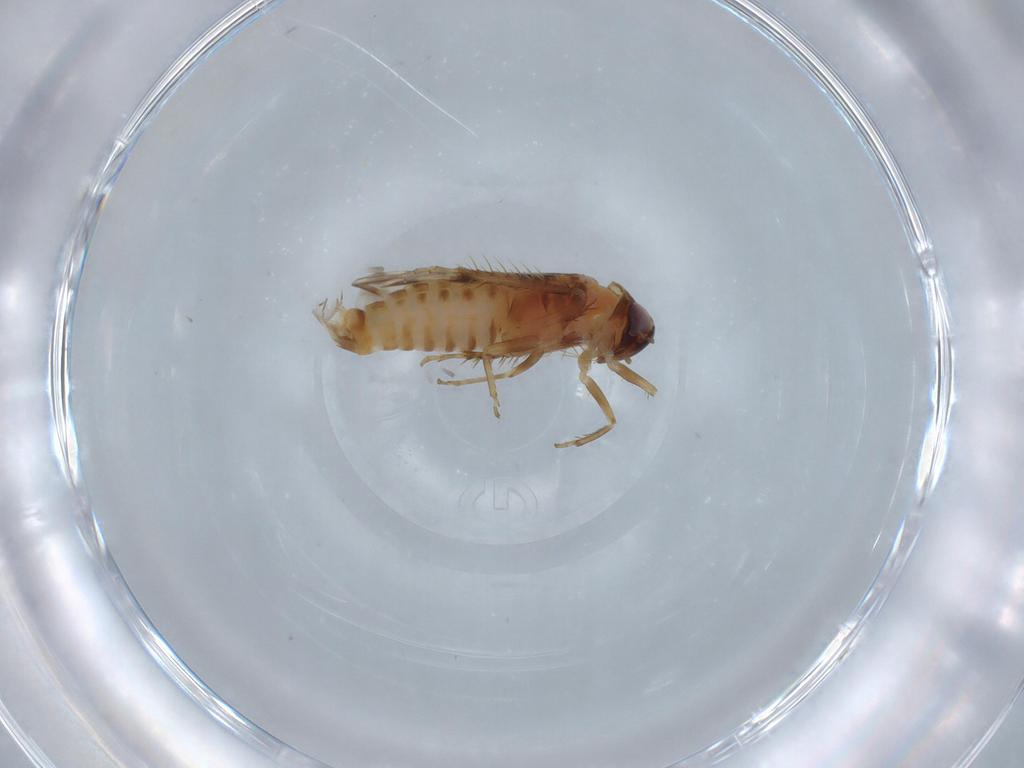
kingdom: Animalia
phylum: Arthropoda
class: Insecta
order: Hemiptera
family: Cicadellidae
